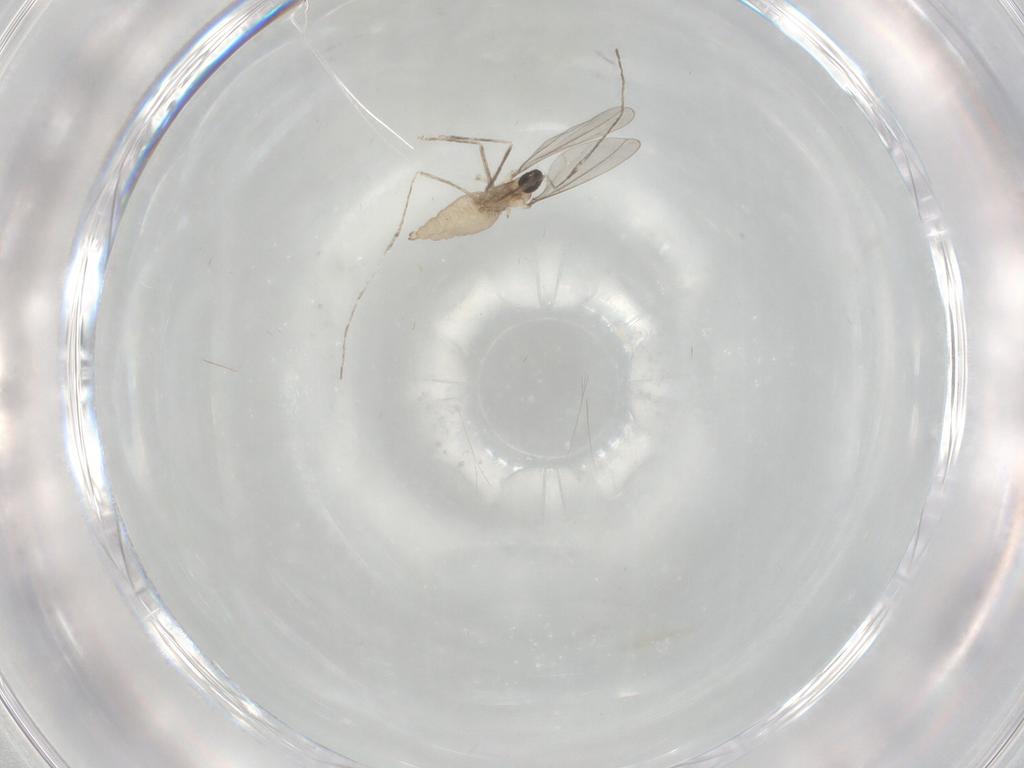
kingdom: Animalia
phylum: Arthropoda
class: Insecta
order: Diptera
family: Cecidomyiidae
